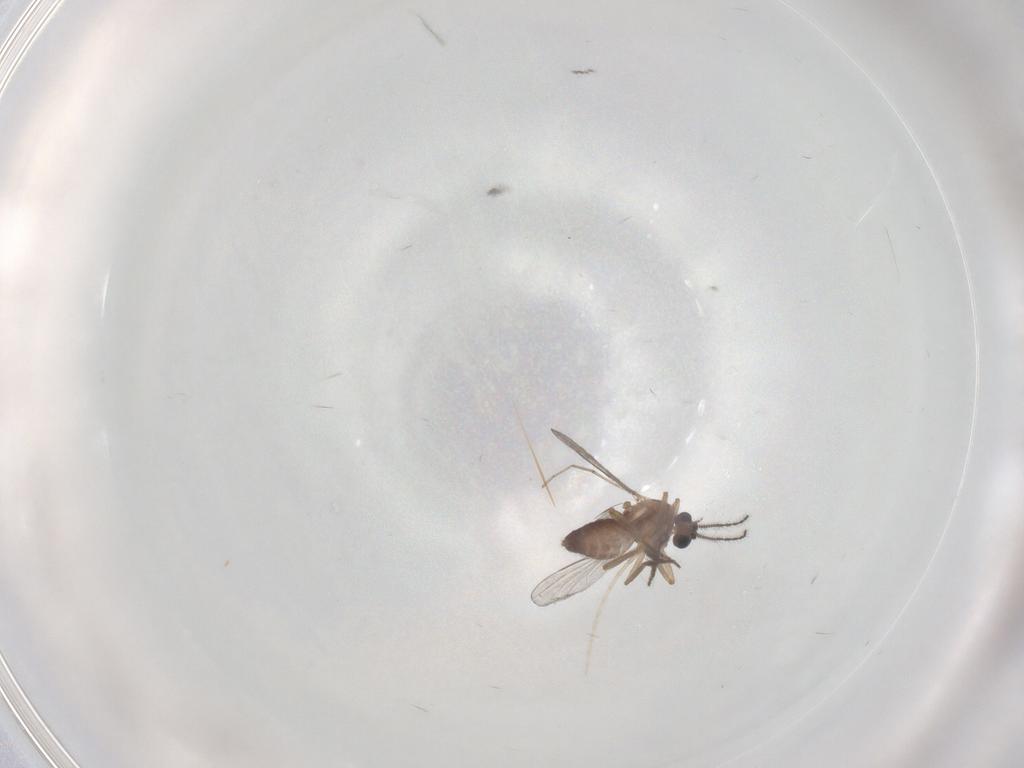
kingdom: Animalia
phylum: Arthropoda
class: Insecta
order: Diptera
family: Ceratopogonidae
